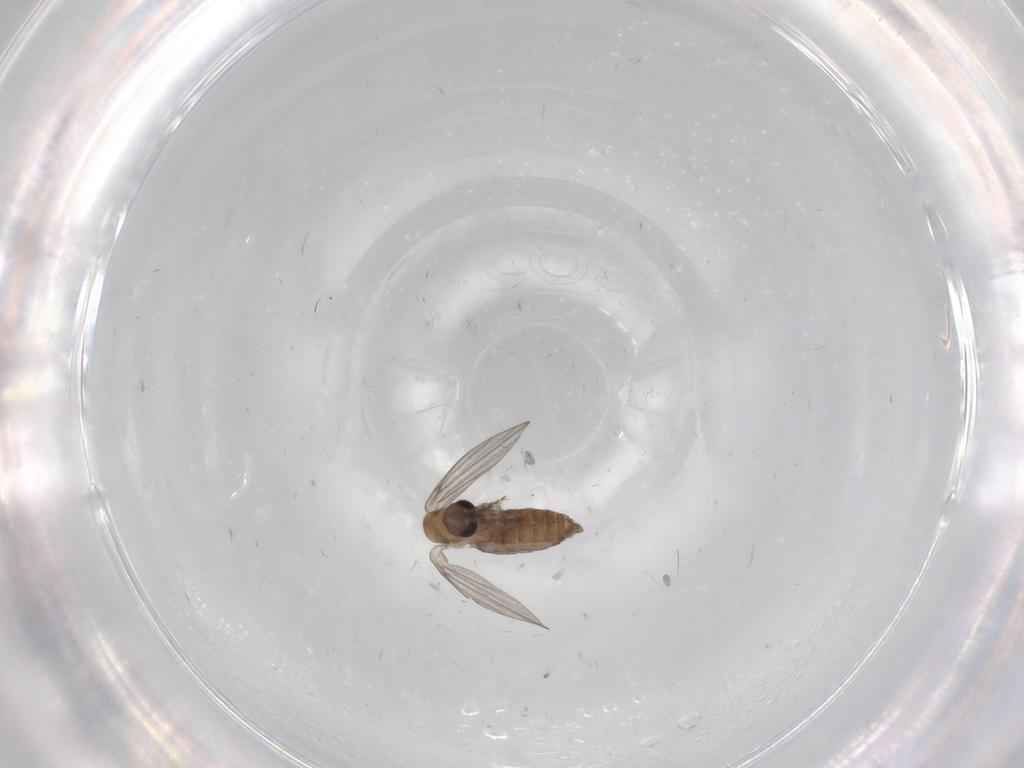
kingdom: Animalia
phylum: Arthropoda
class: Insecta
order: Diptera
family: Psychodidae
